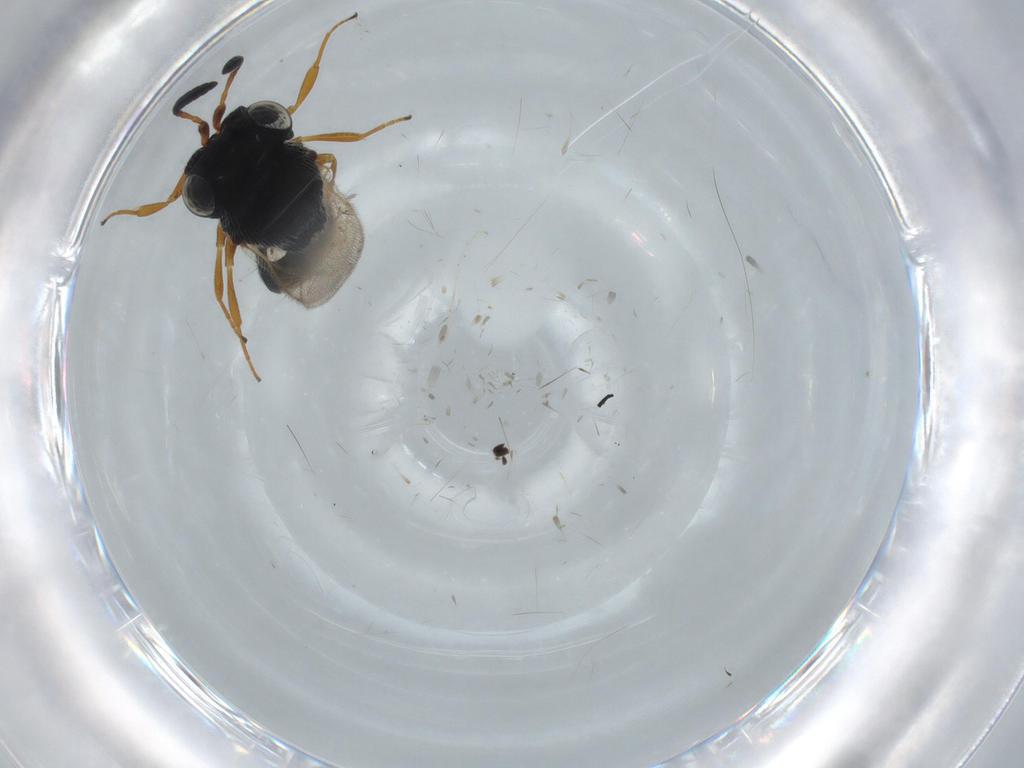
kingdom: Animalia
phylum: Arthropoda
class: Insecta
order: Hymenoptera
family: Scelionidae
